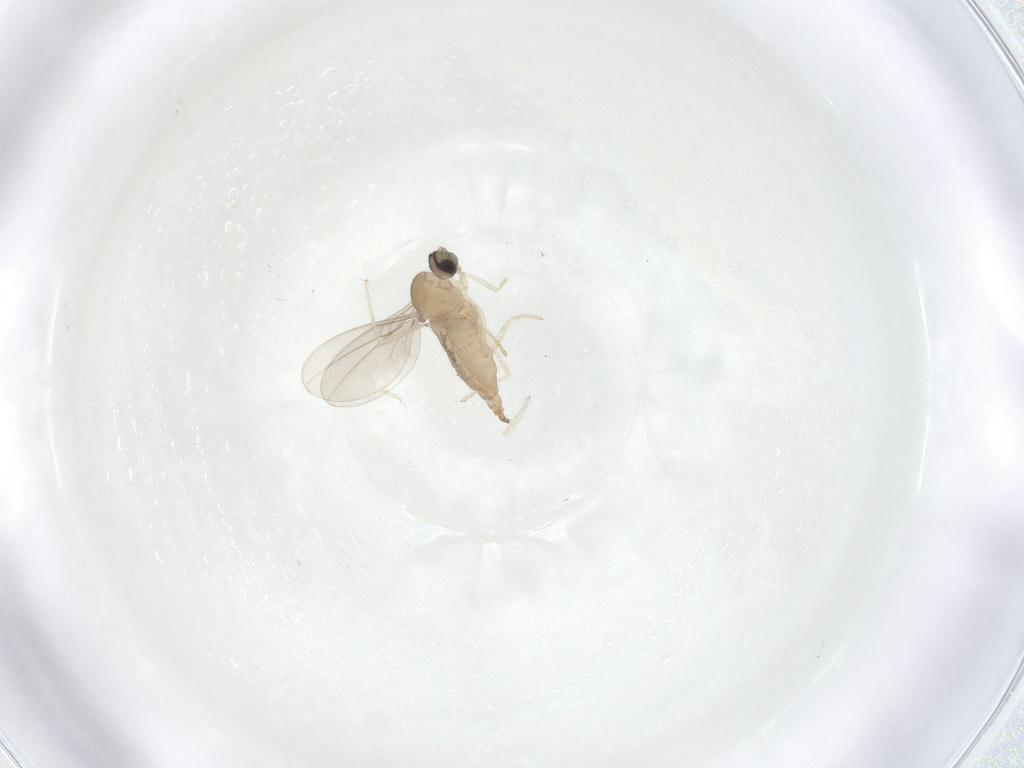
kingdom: Animalia
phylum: Arthropoda
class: Insecta
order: Diptera
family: Cecidomyiidae
